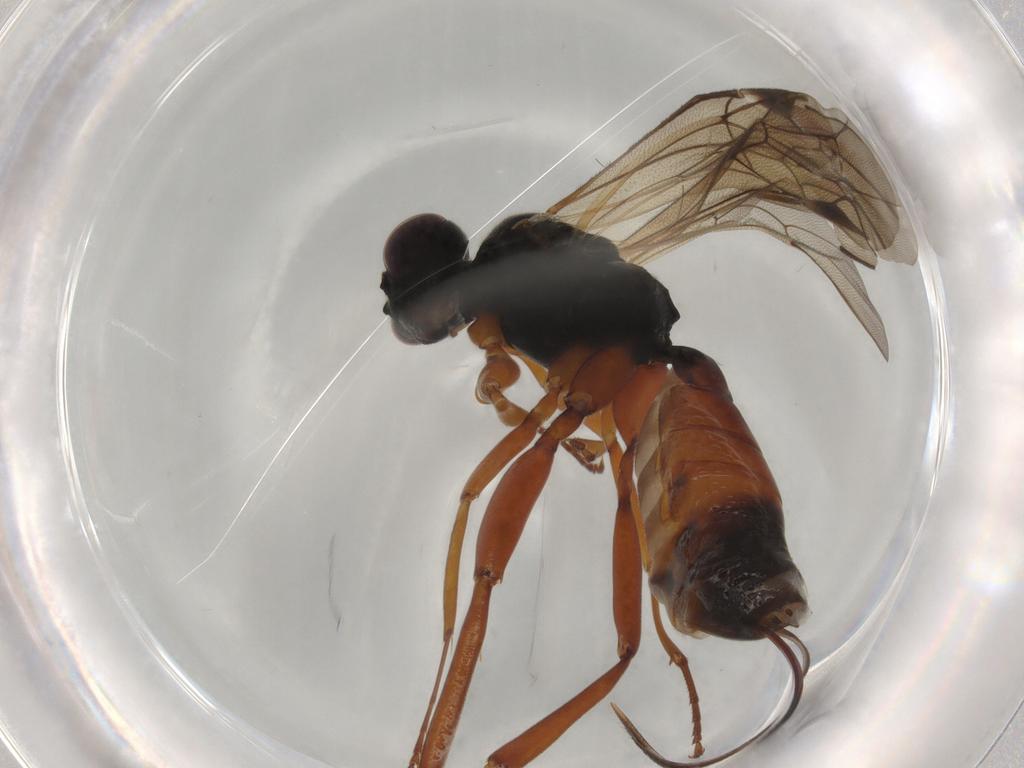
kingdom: Animalia
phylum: Arthropoda
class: Insecta
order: Hymenoptera
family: Formicidae
